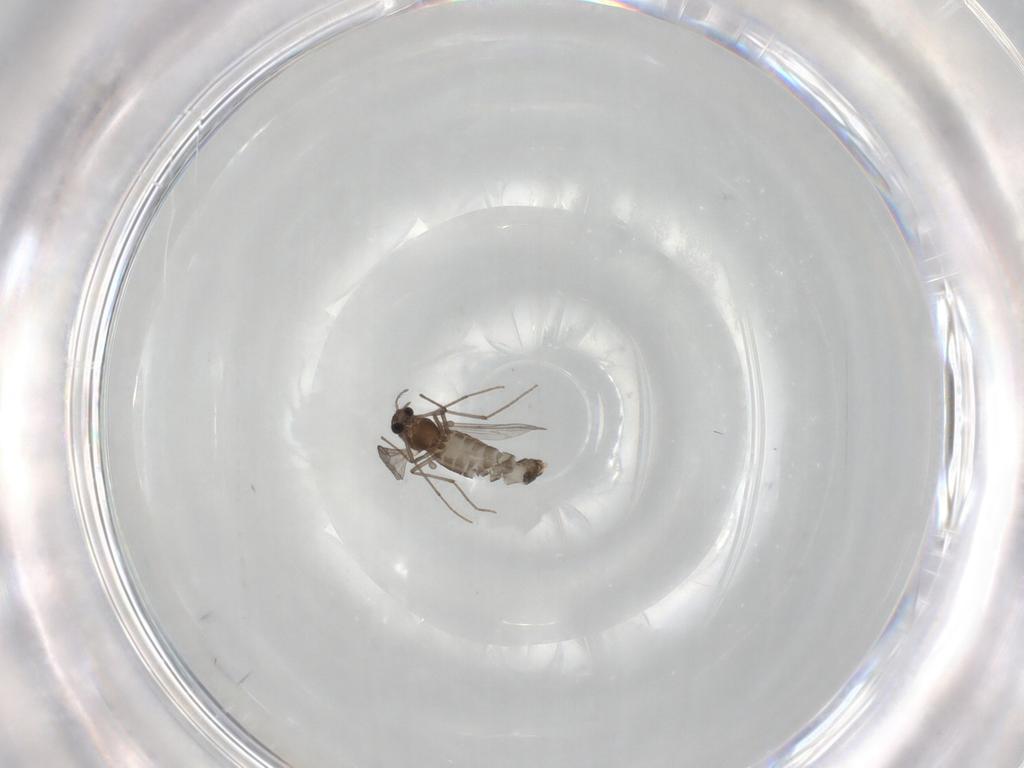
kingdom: Animalia
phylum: Arthropoda
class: Insecta
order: Diptera
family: Chironomidae
